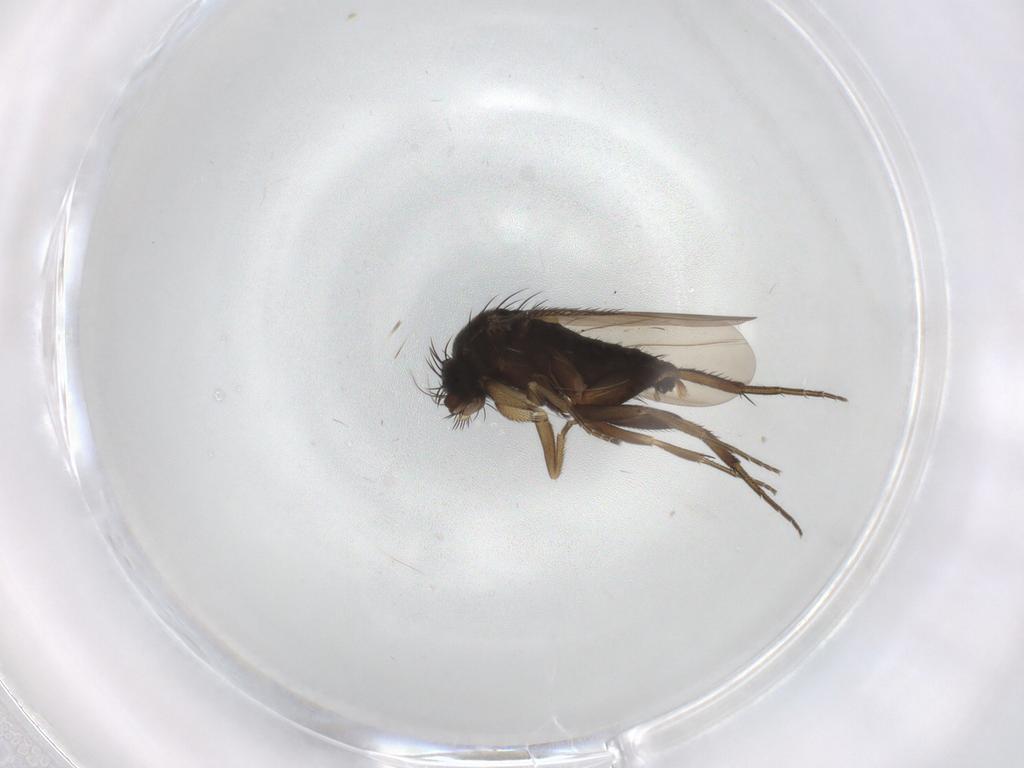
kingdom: Animalia
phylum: Arthropoda
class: Insecta
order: Diptera
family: Phoridae
